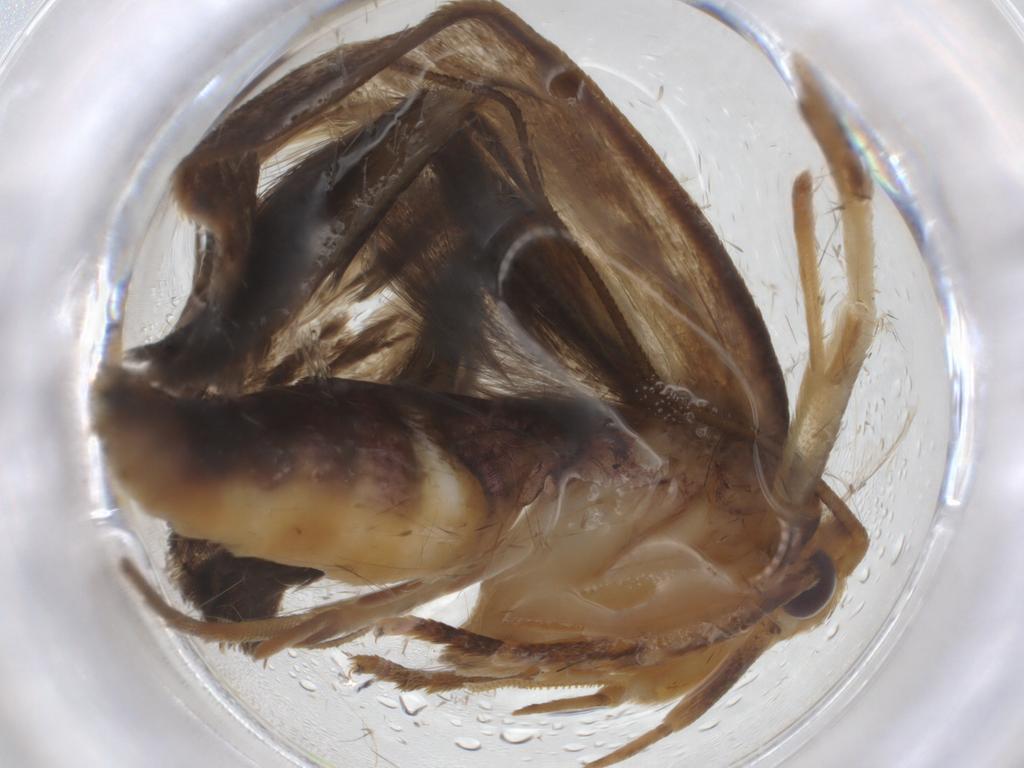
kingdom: Animalia
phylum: Arthropoda
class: Insecta
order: Lepidoptera
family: Depressariidae
